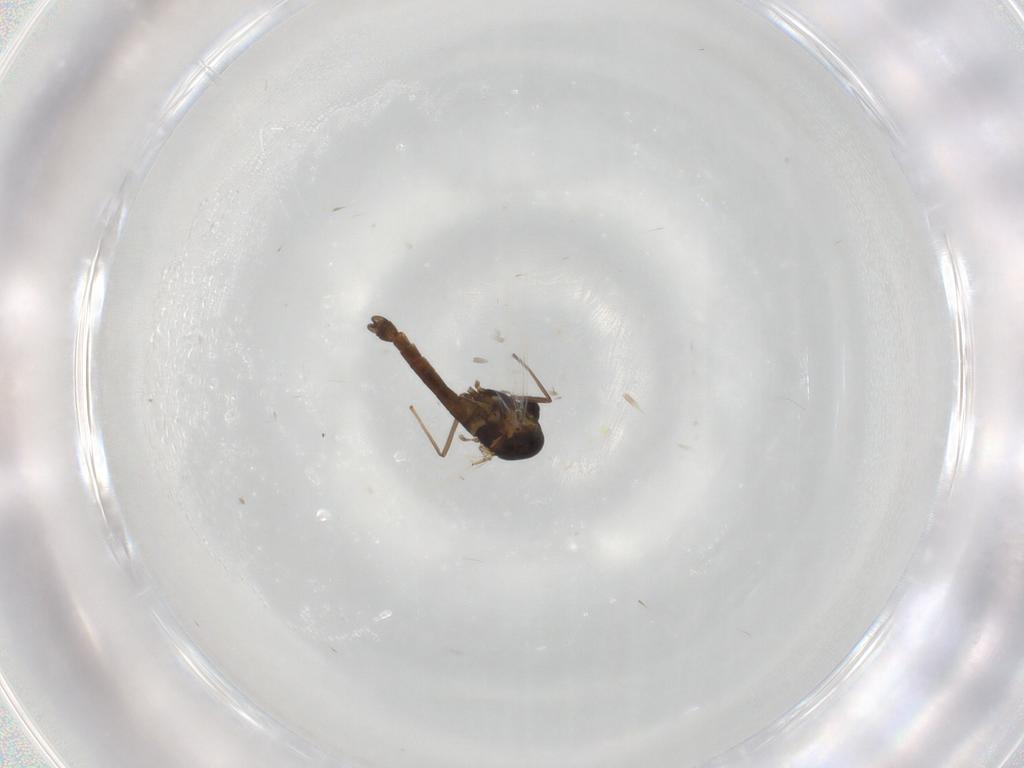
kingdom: Animalia
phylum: Arthropoda
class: Insecta
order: Diptera
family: Chironomidae
